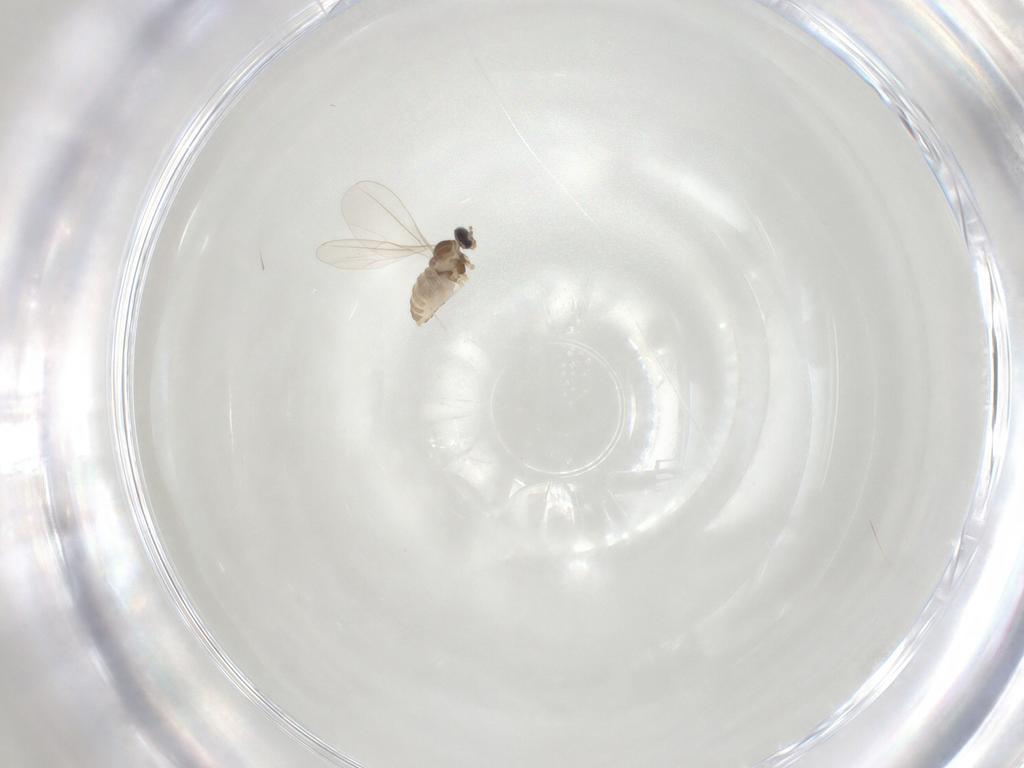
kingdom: Animalia
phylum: Arthropoda
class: Insecta
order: Diptera
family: Cecidomyiidae
